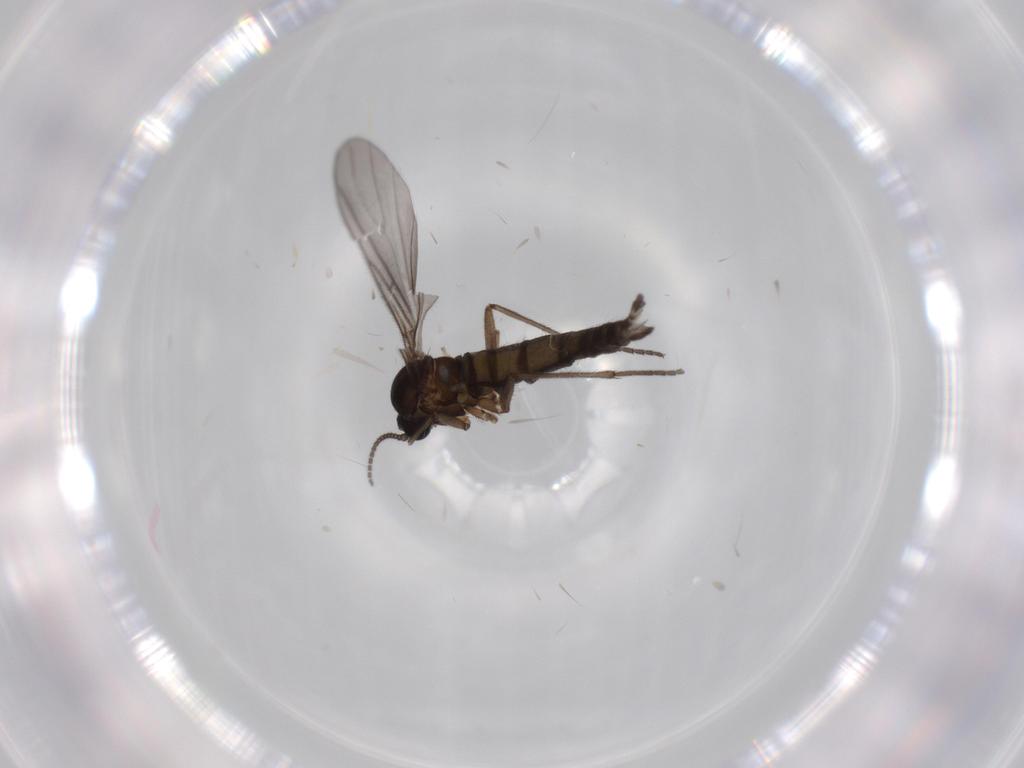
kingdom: Animalia
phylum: Arthropoda
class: Insecta
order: Diptera
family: Sciaridae
